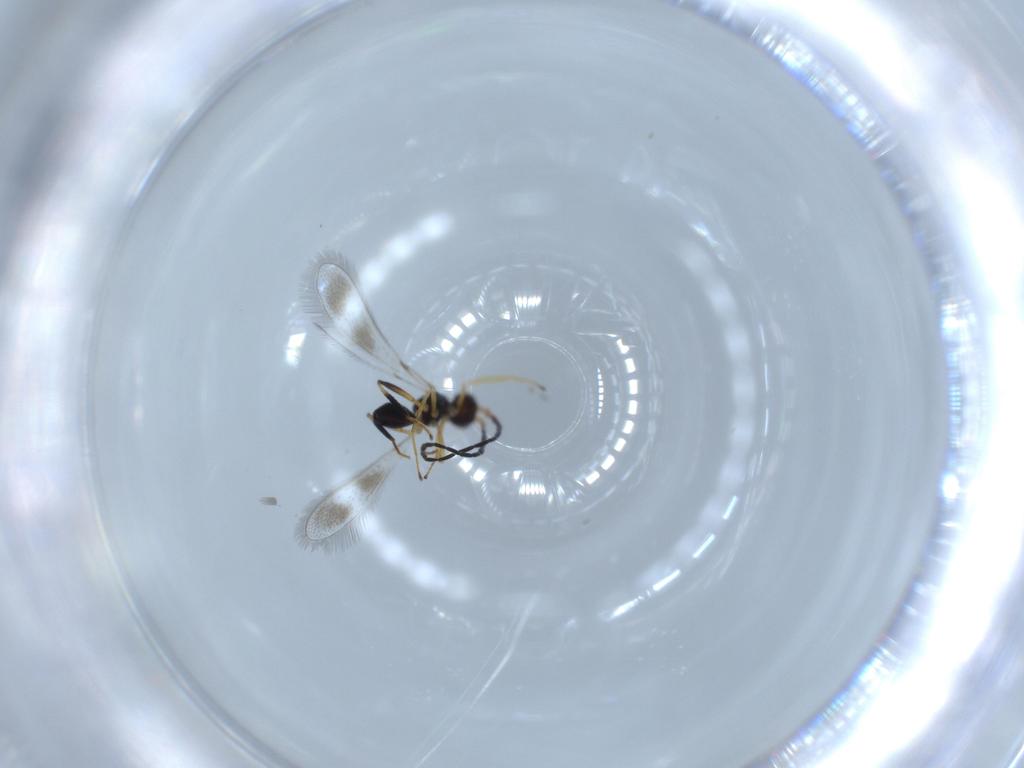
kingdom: Animalia
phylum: Arthropoda
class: Insecta
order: Hymenoptera
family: Mymaridae
